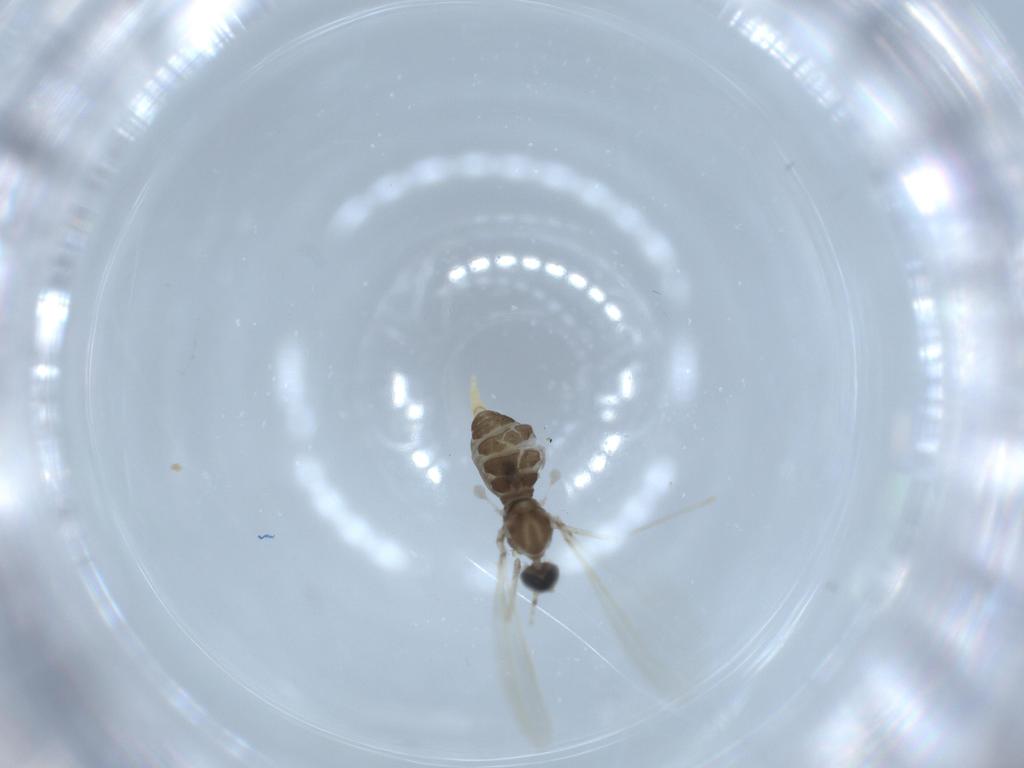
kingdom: Animalia
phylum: Arthropoda
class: Insecta
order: Diptera
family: Cecidomyiidae
